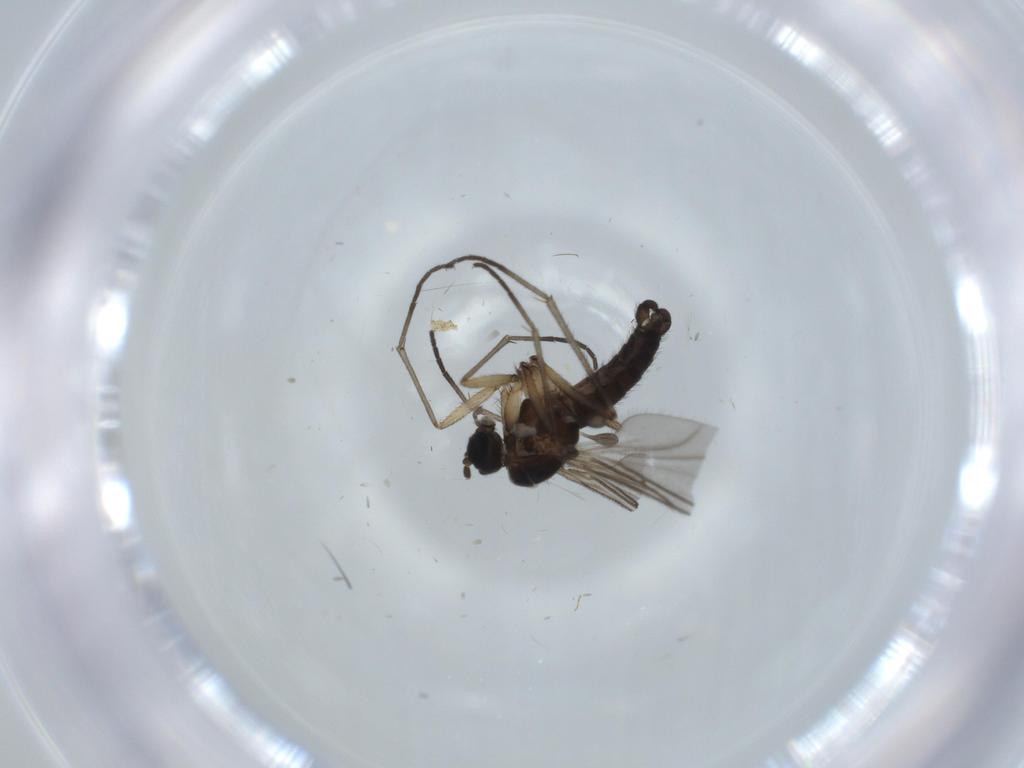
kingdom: Animalia
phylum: Arthropoda
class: Insecta
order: Diptera
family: Sciaridae
